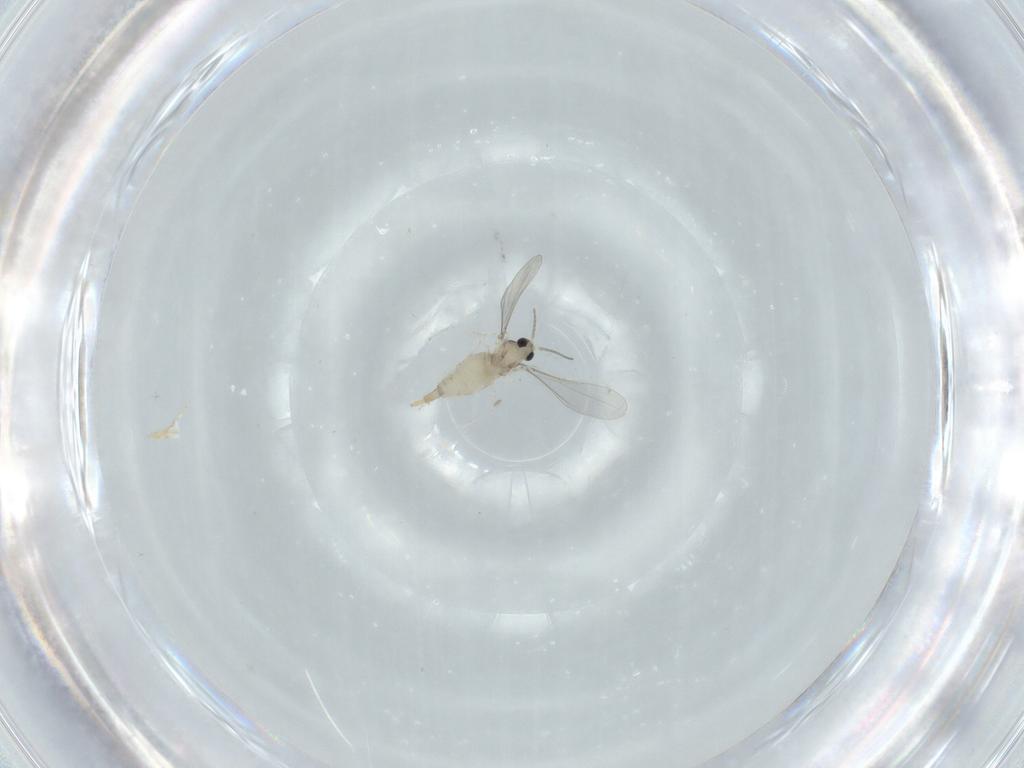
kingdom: Animalia
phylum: Arthropoda
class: Insecta
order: Diptera
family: Cecidomyiidae
